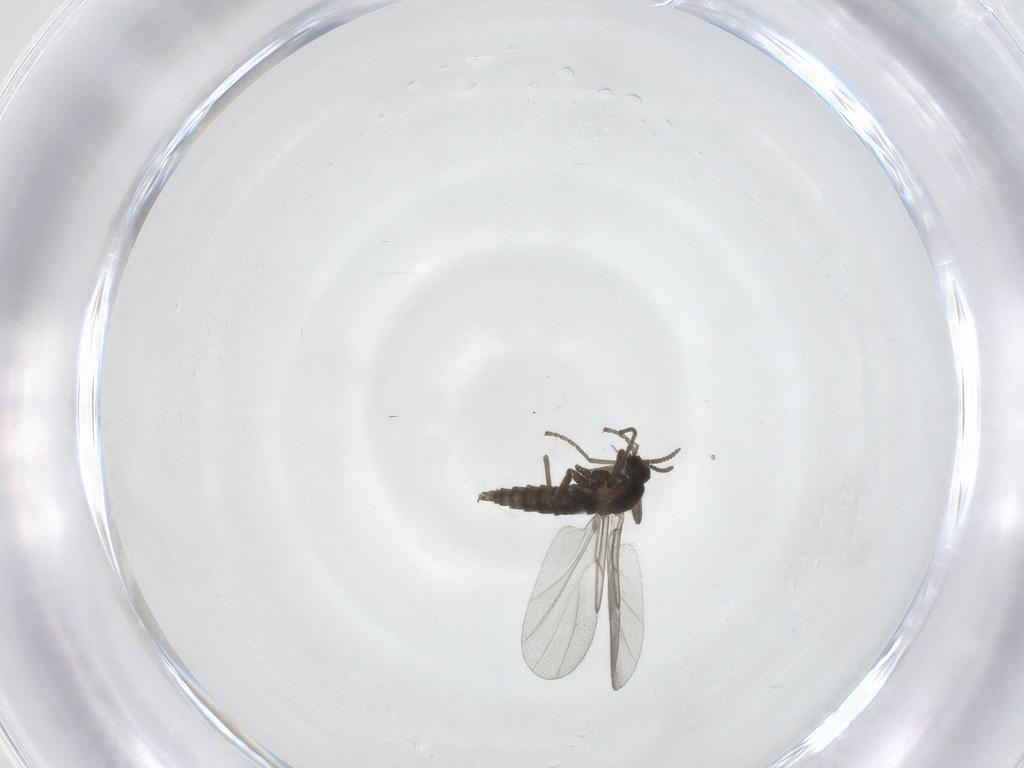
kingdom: Animalia
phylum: Arthropoda
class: Insecta
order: Diptera
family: Cecidomyiidae
